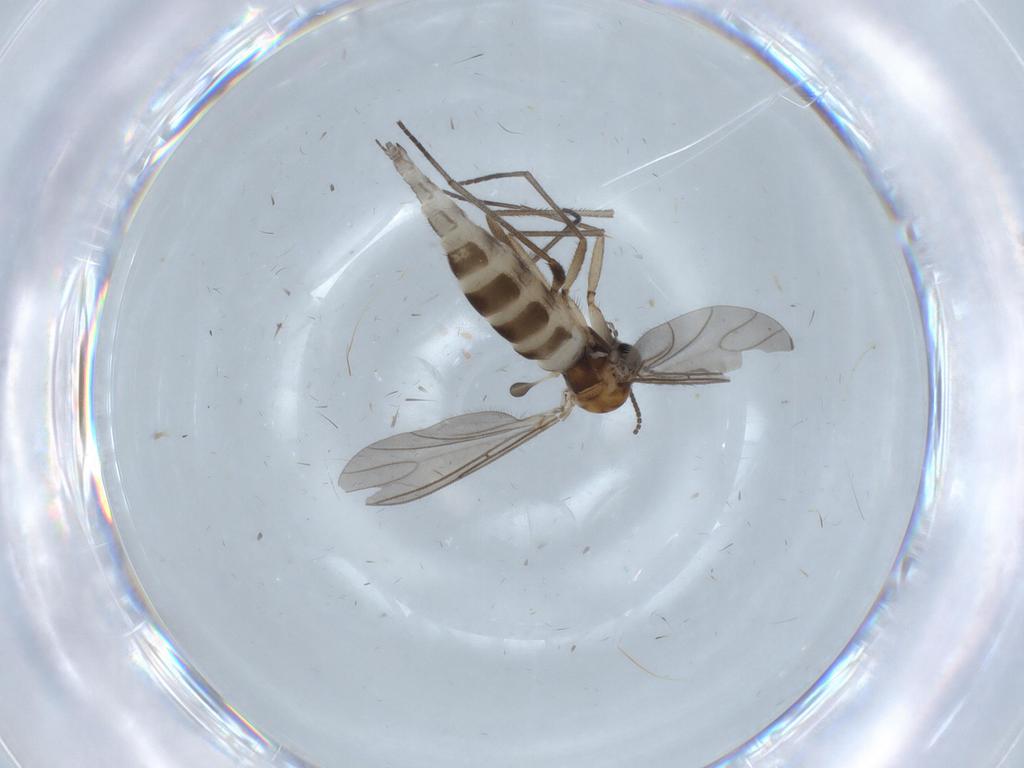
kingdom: Animalia
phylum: Arthropoda
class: Insecta
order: Diptera
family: Sciaridae
